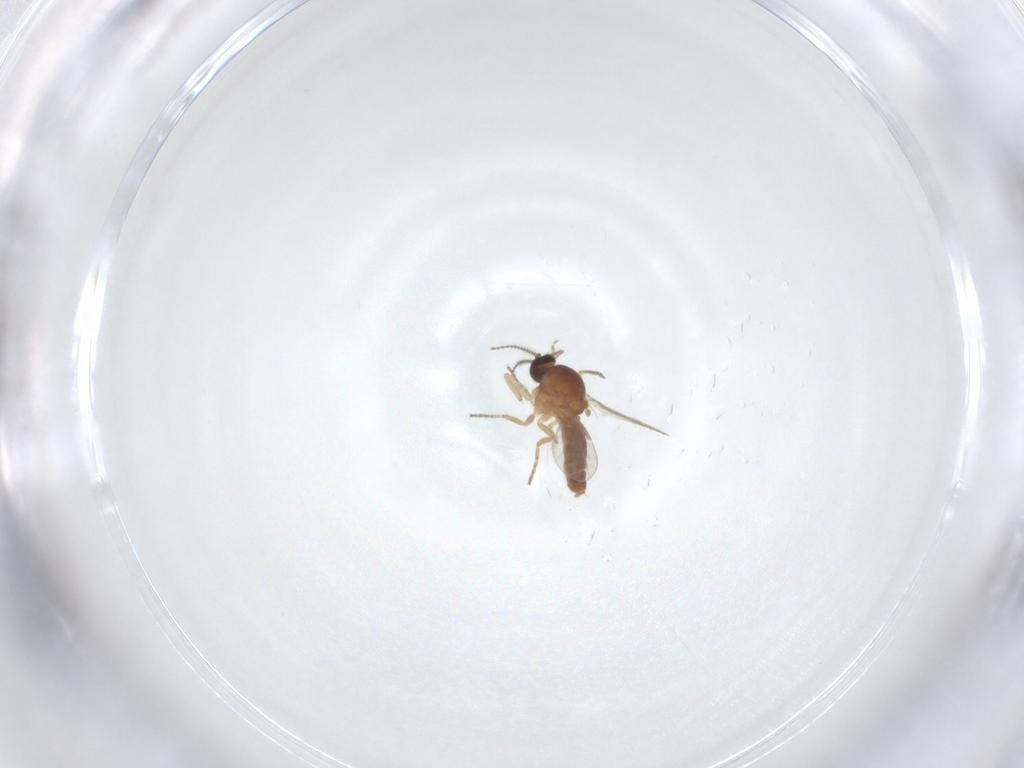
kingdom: Animalia
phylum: Arthropoda
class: Insecta
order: Diptera
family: Ceratopogonidae
